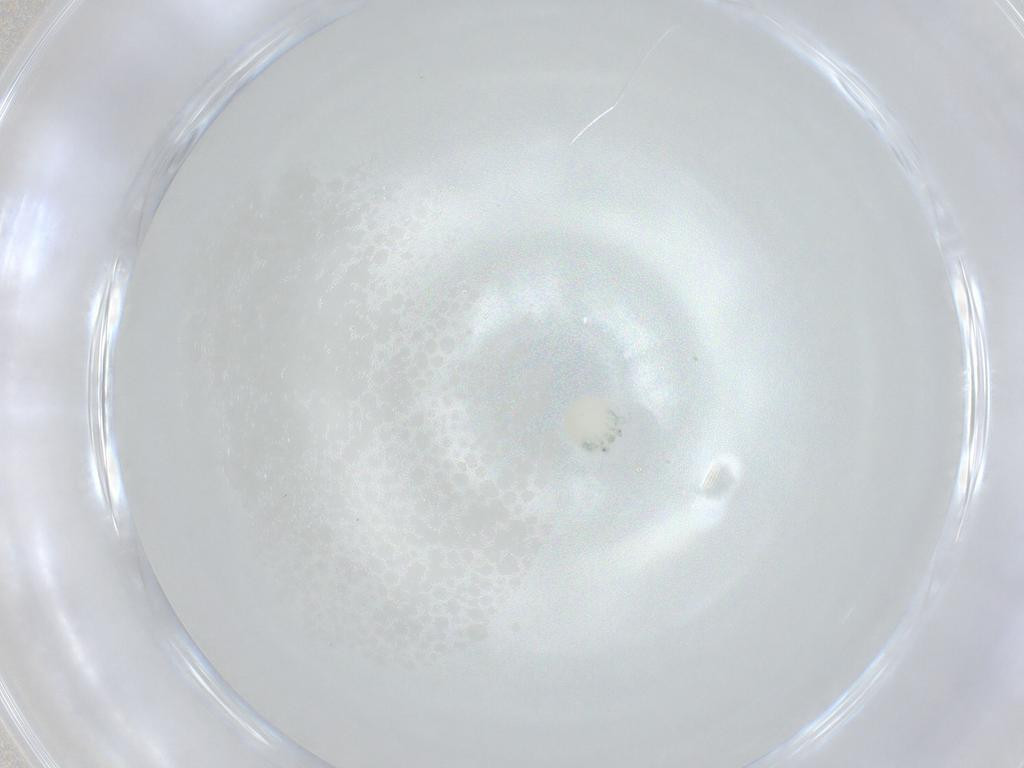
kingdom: Animalia
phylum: Arthropoda
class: Arachnida
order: Trombidiformes
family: Arrenuridae
